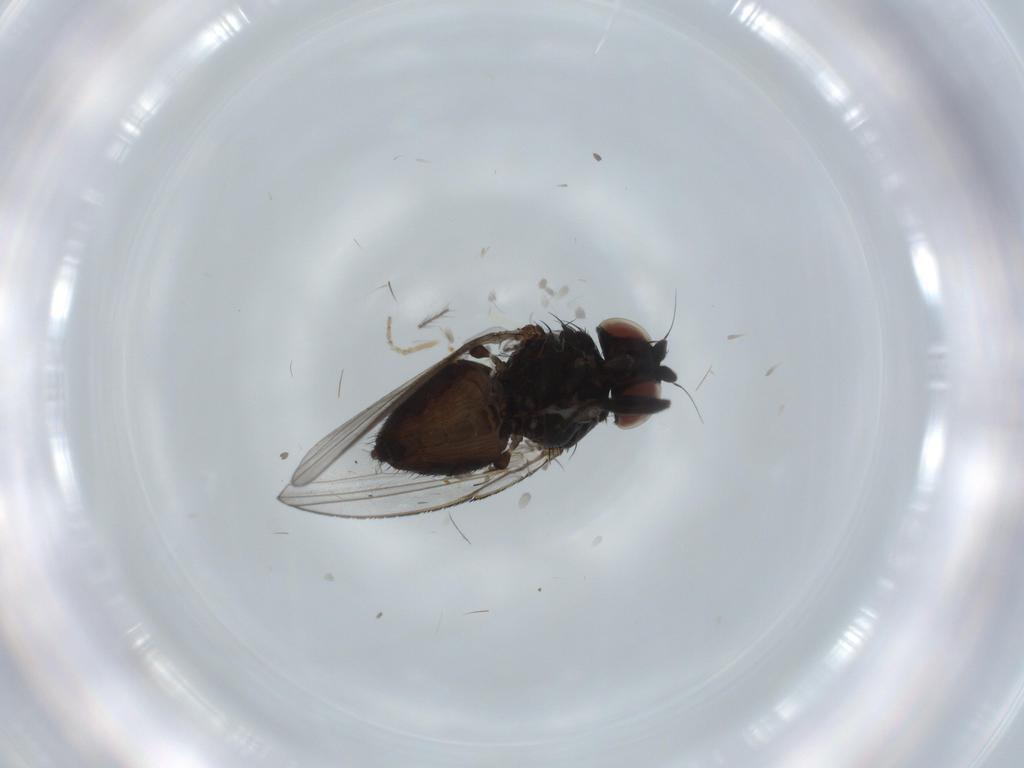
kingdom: Animalia
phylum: Arthropoda
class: Insecta
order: Diptera
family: Milichiidae
